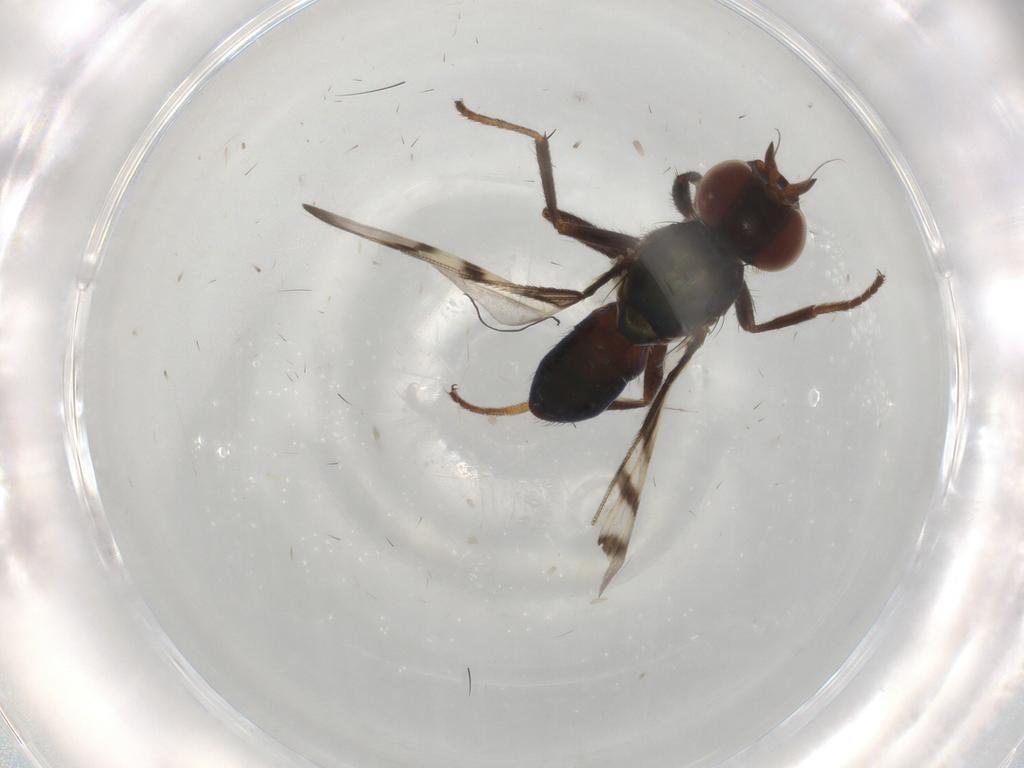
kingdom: Animalia
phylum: Arthropoda
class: Insecta
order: Diptera
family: Platystomatidae
